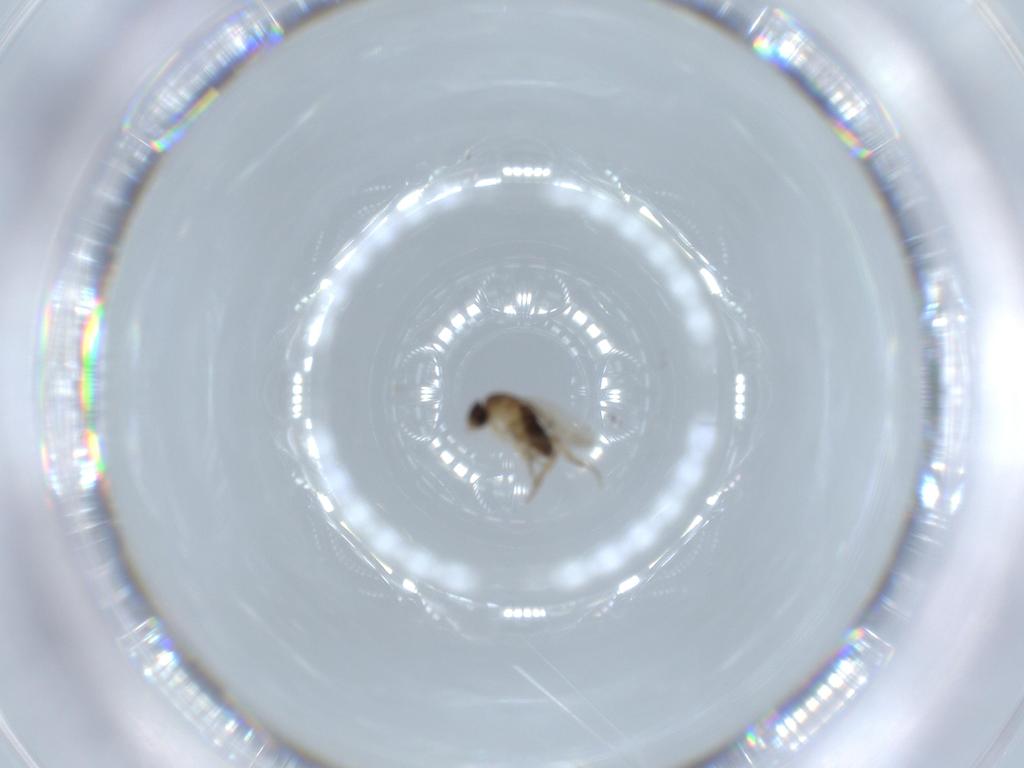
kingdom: Animalia
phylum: Arthropoda
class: Insecta
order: Diptera
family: Phoridae
